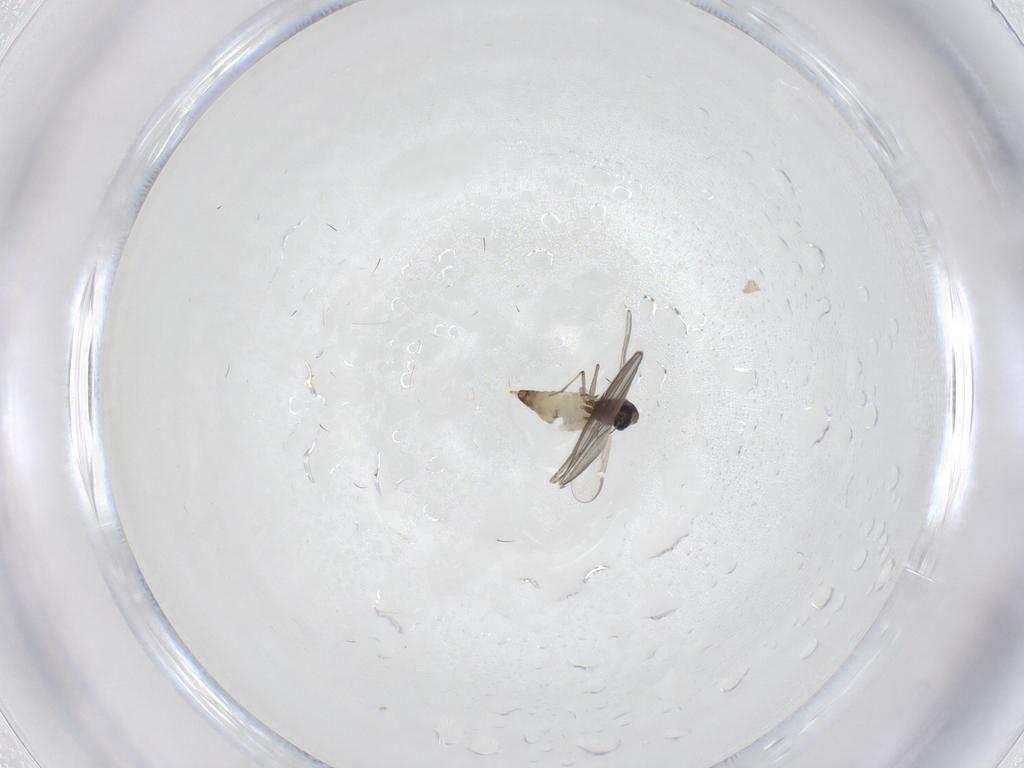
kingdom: Animalia
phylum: Arthropoda
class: Insecta
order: Diptera
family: Chironomidae
